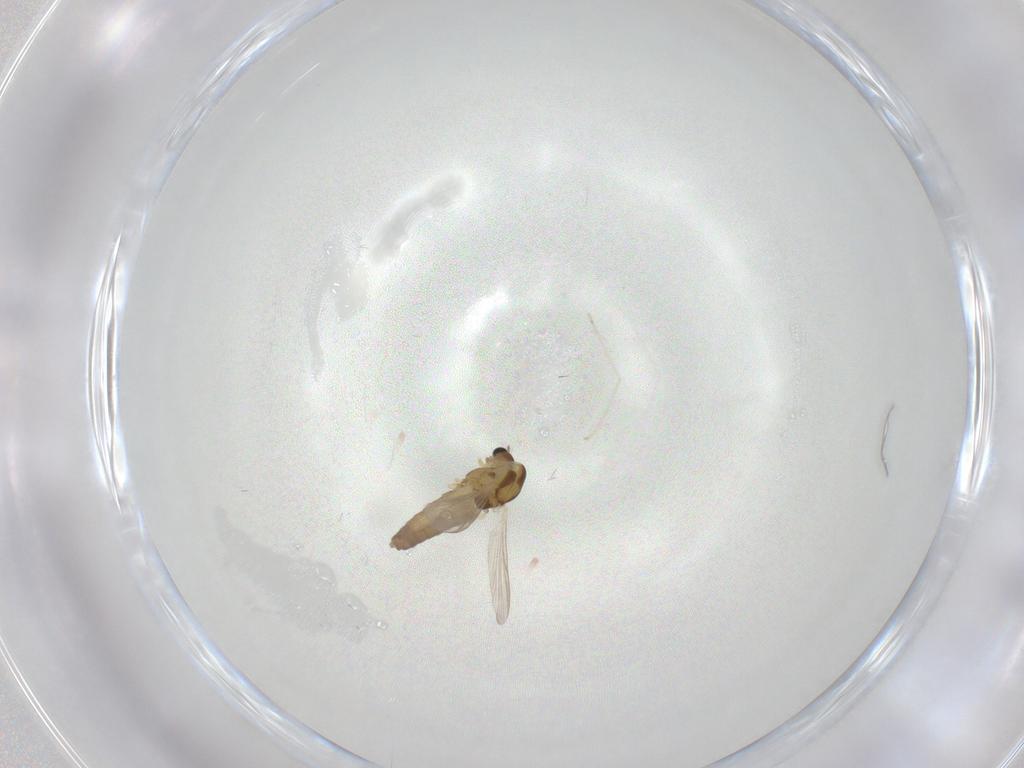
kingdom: Animalia
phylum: Arthropoda
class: Insecta
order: Diptera
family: Chironomidae
